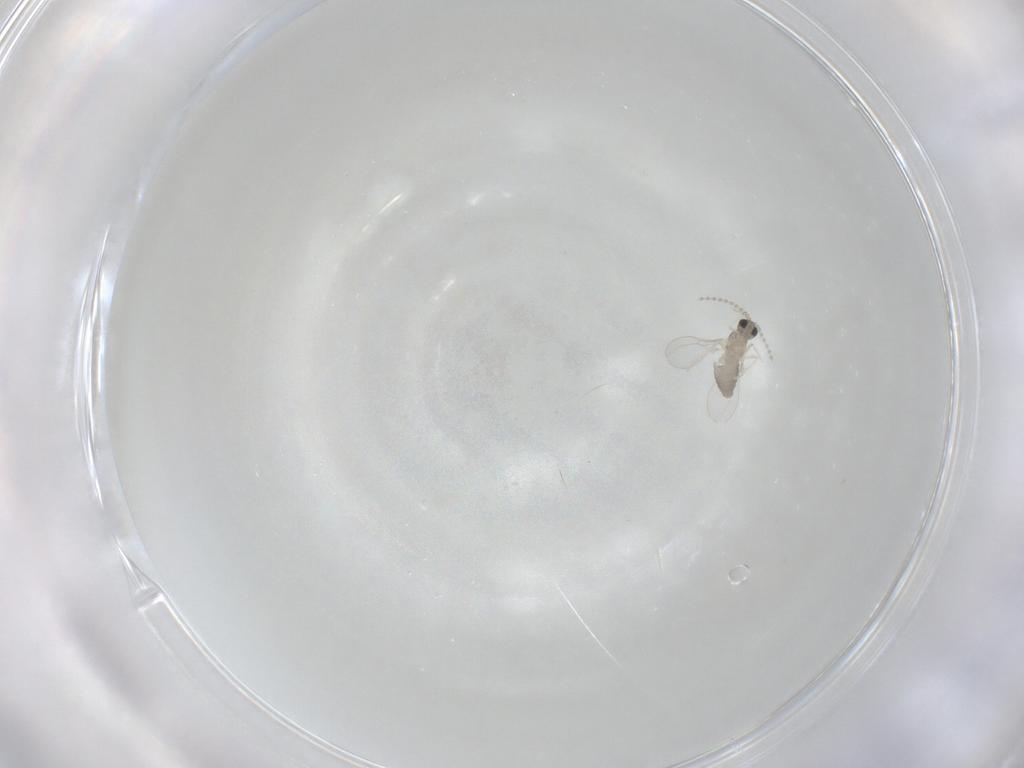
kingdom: Animalia
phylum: Arthropoda
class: Insecta
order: Diptera
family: Cecidomyiidae
